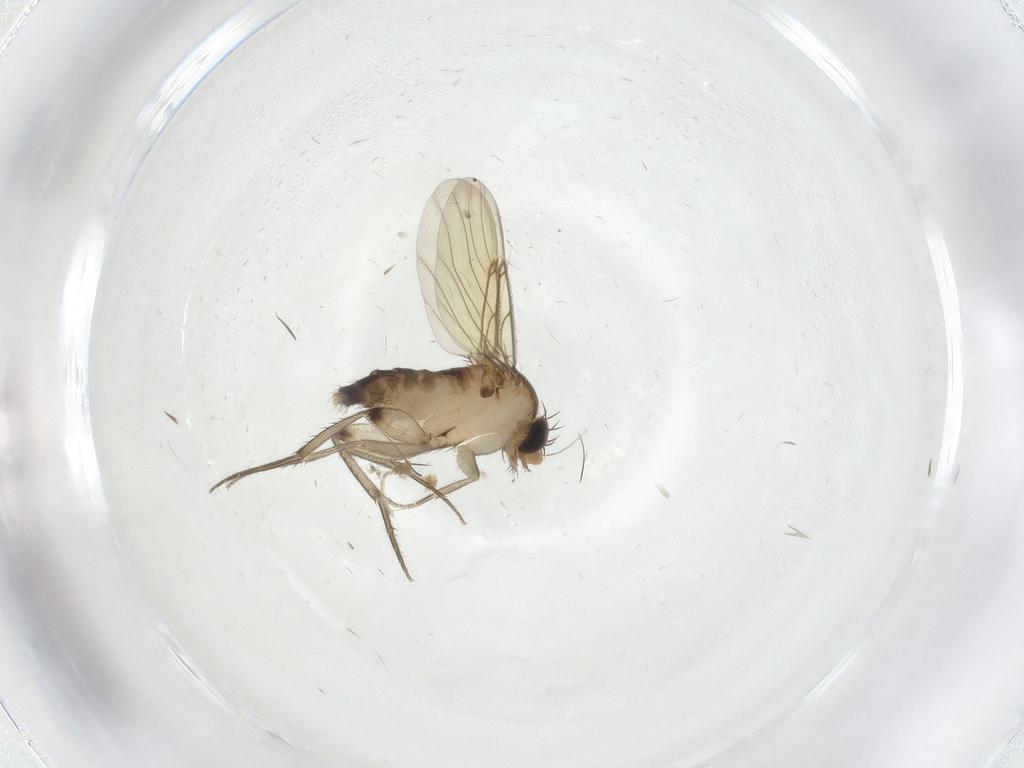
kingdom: Animalia
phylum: Arthropoda
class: Insecta
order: Diptera
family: Phoridae
